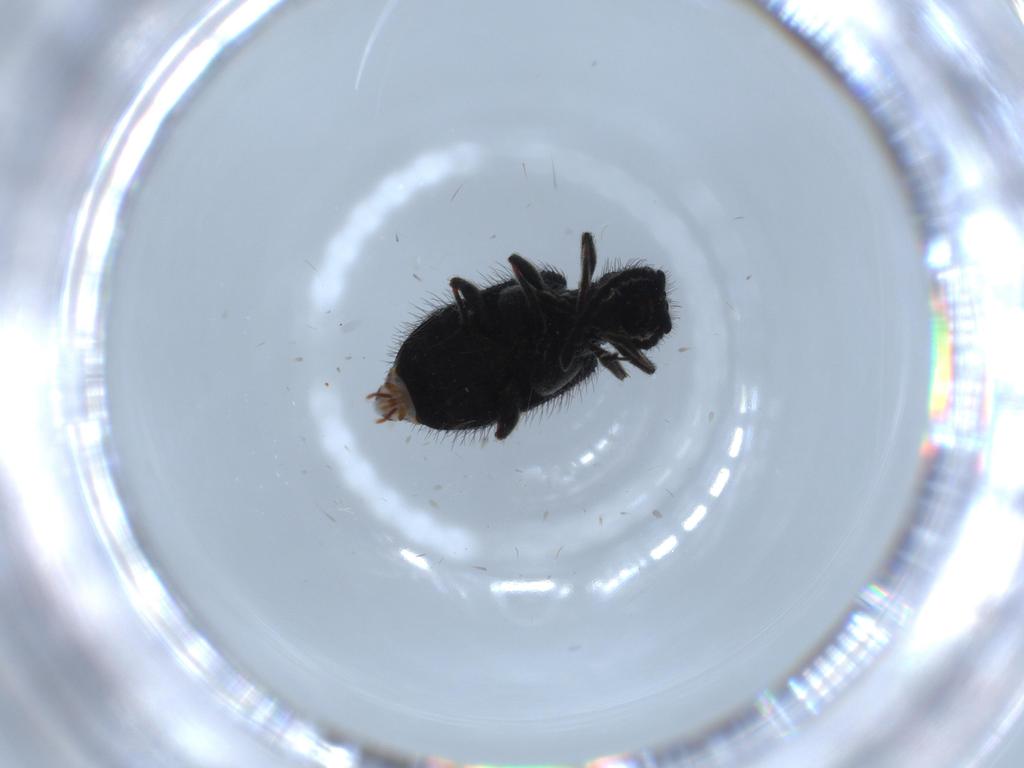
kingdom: Animalia
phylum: Arthropoda
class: Insecta
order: Coleoptera
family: Ptinidae
